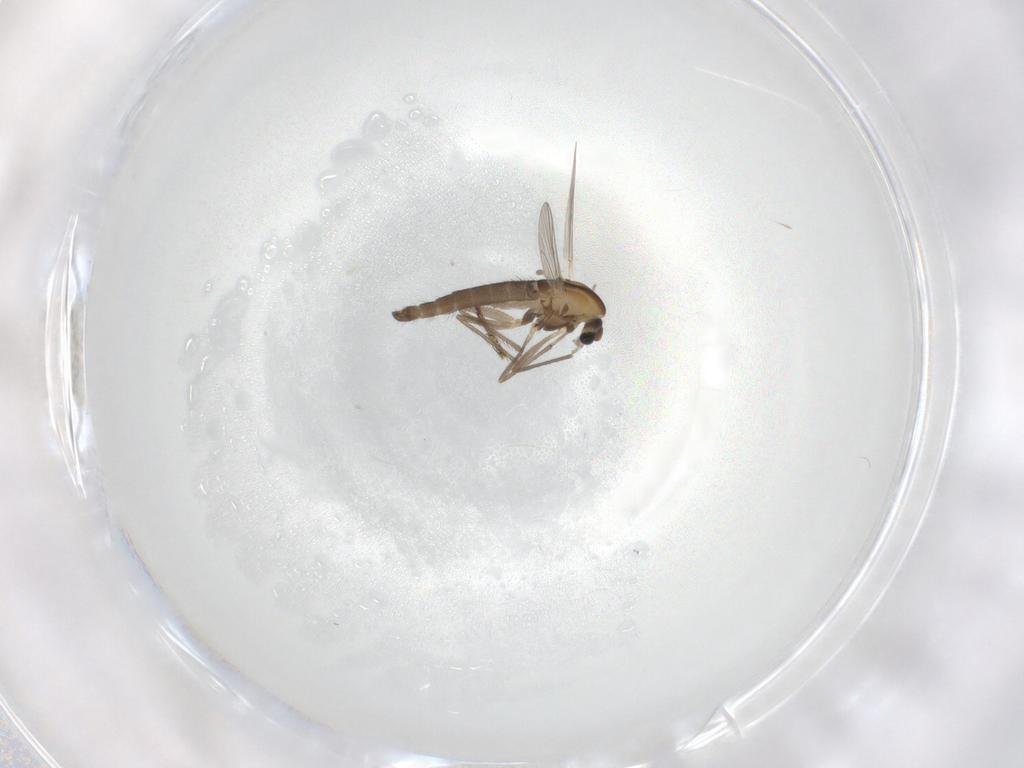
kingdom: Animalia
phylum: Arthropoda
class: Insecta
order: Diptera
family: Chironomidae
